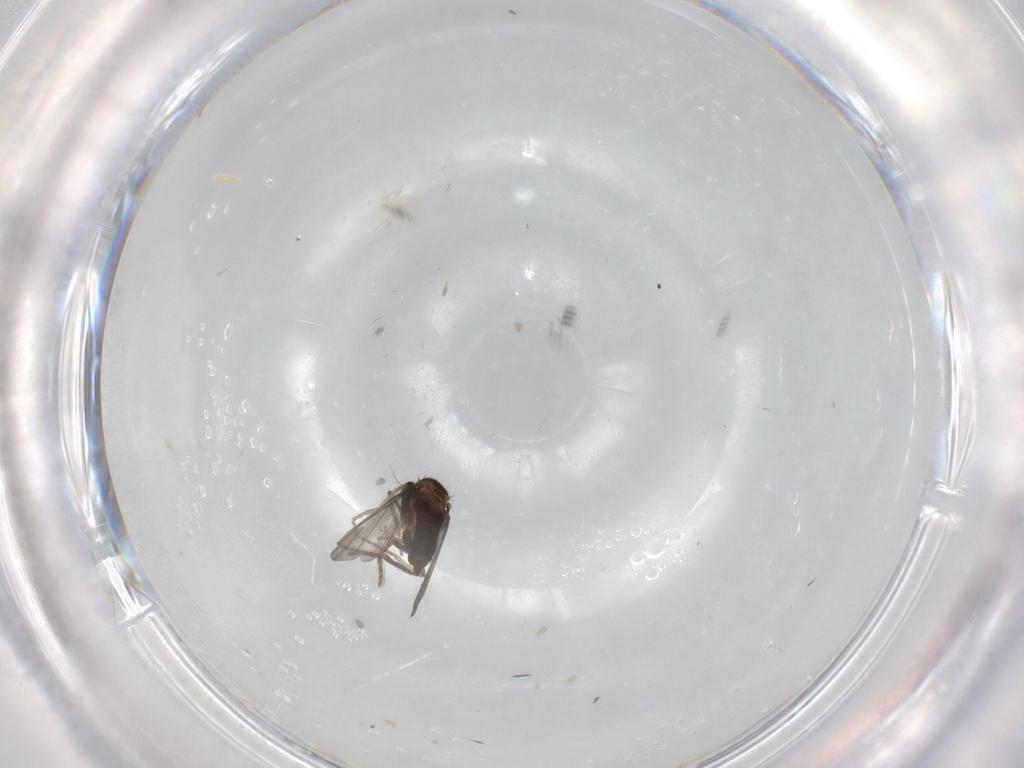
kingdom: Animalia
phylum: Arthropoda
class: Insecta
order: Diptera
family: Phoridae
